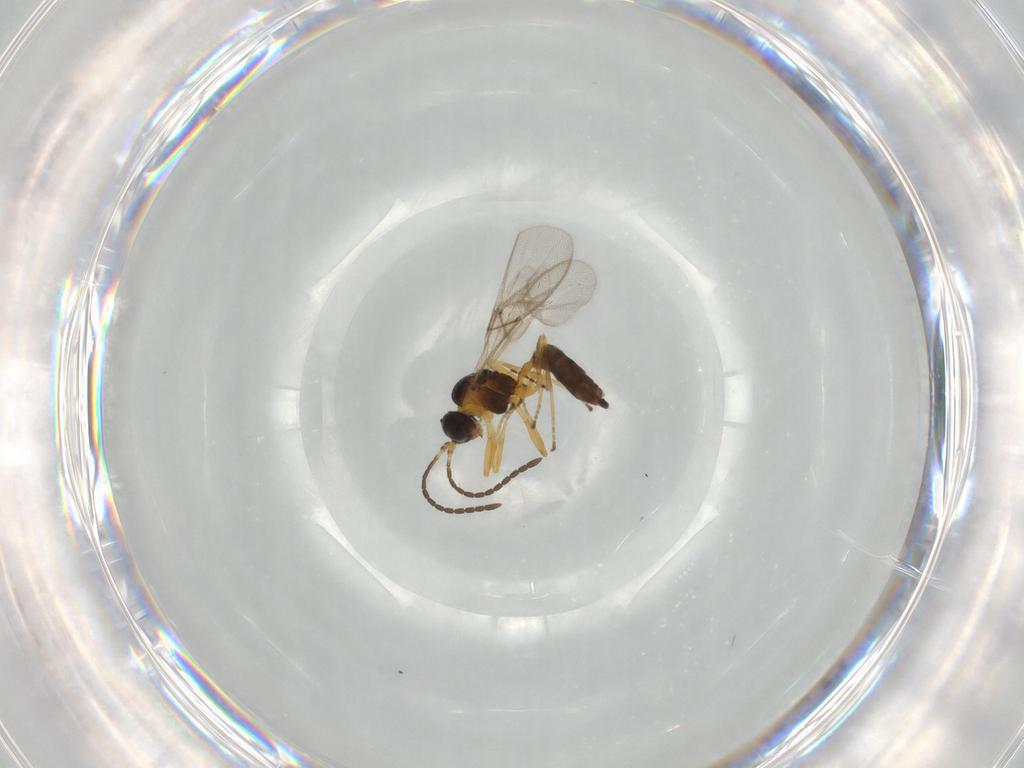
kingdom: Animalia
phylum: Arthropoda
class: Insecta
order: Hymenoptera
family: Braconidae
